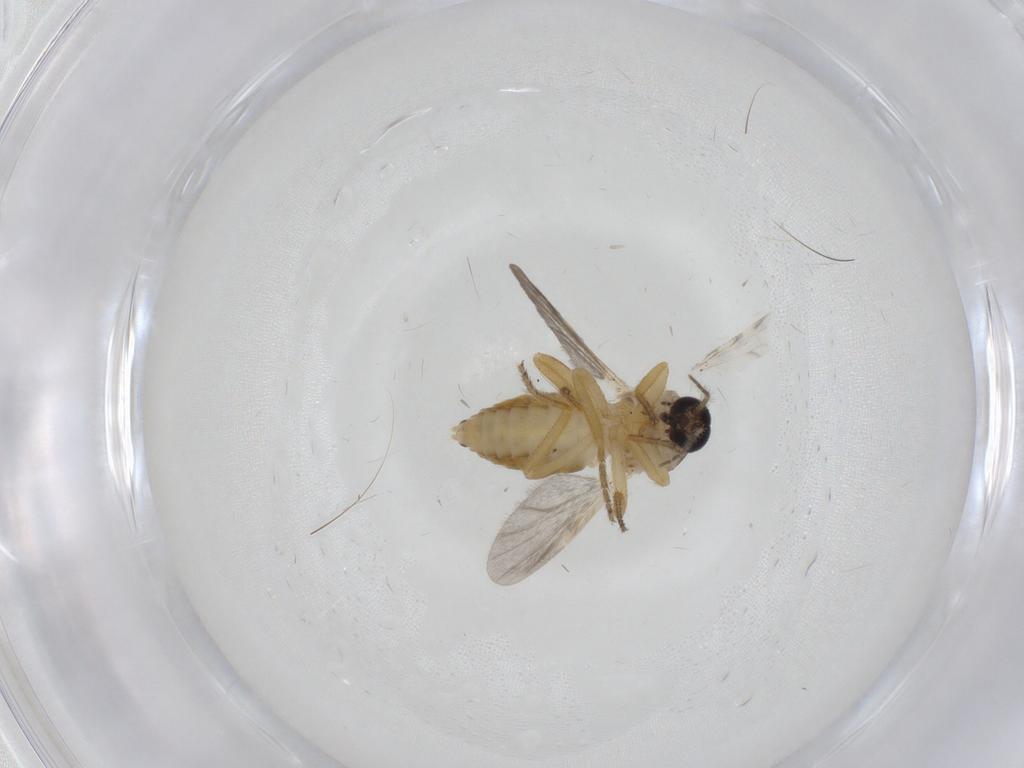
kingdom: Animalia
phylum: Arthropoda
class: Insecta
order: Diptera
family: Ceratopogonidae
